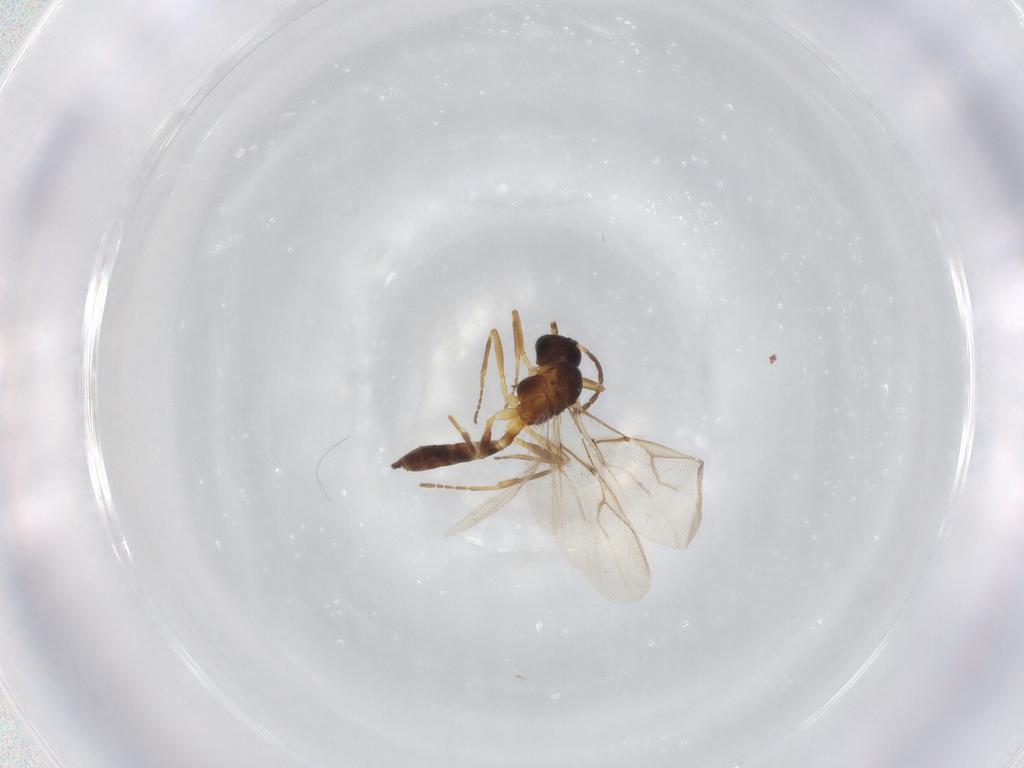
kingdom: Animalia
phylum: Arthropoda
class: Insecta
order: Hymenoptera
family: Braconidae
